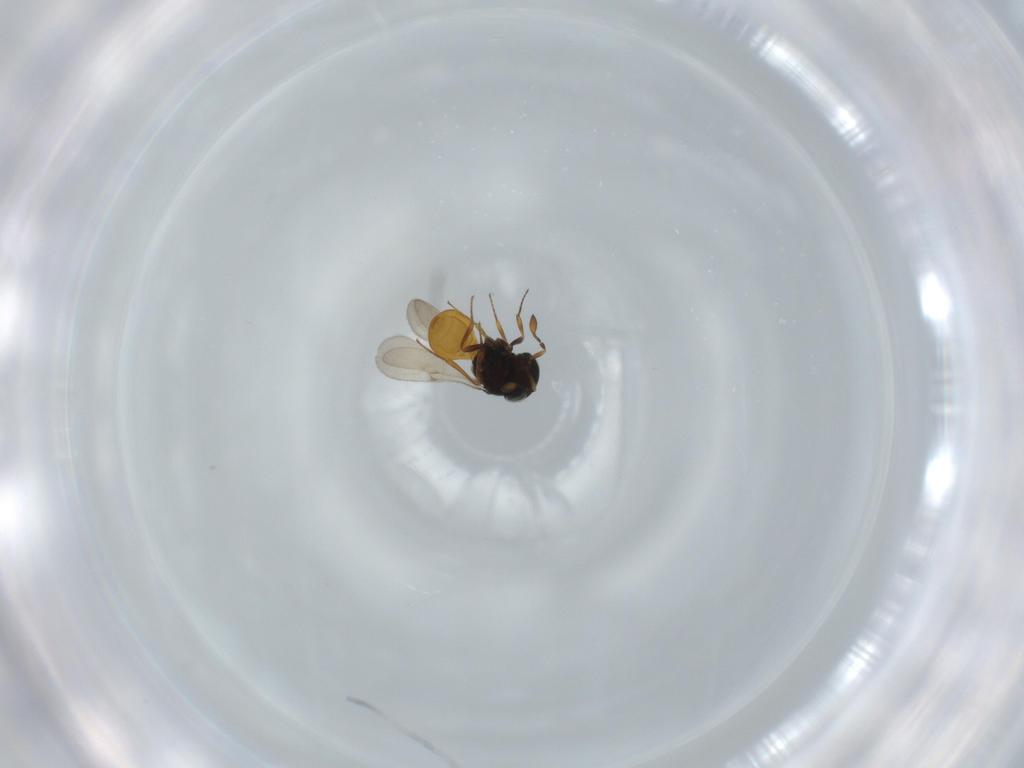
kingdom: Animalia
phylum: Arthropoda
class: Insecta
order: Hymenoptera
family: Scelionidae
